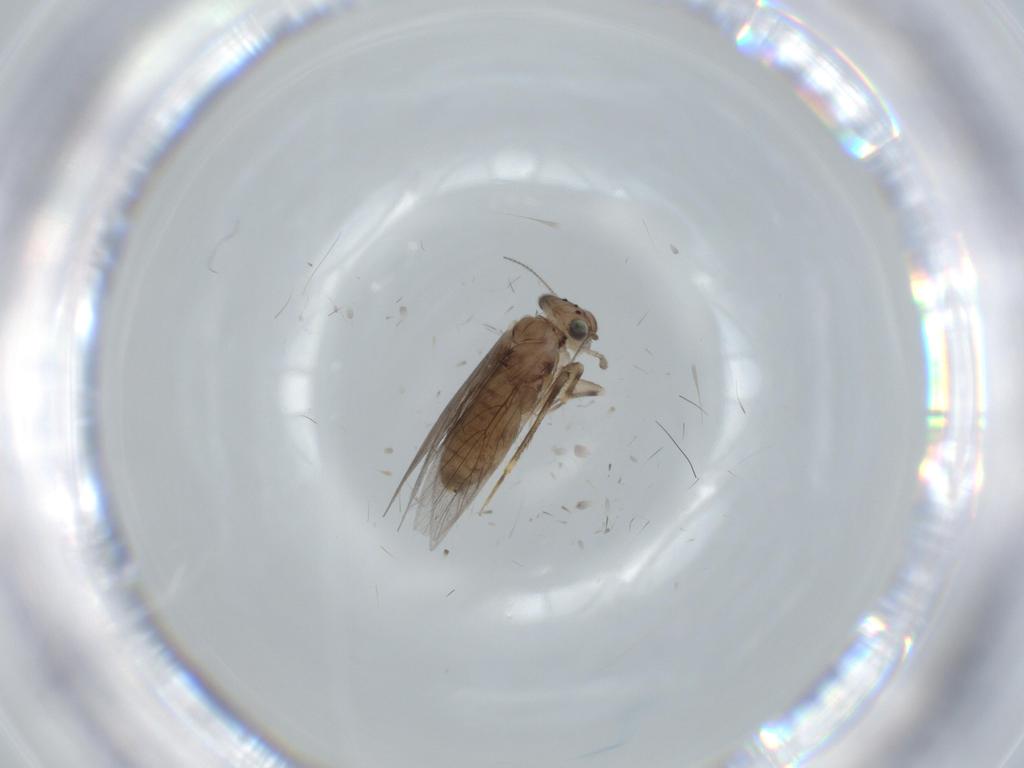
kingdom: Animalia
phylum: Arthropoda
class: Insecta
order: Psocodea
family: Lepidopsocidae
